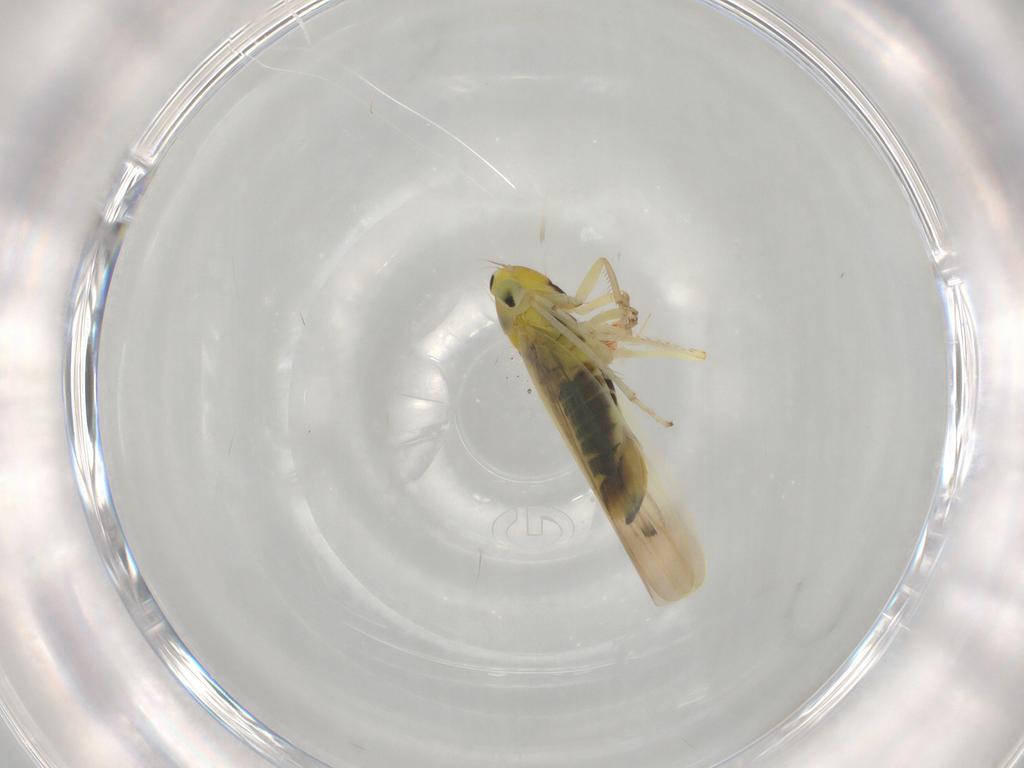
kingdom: Animalia
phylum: Arthropoda
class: Insecta
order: Hemiptera
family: Cicadellidae
